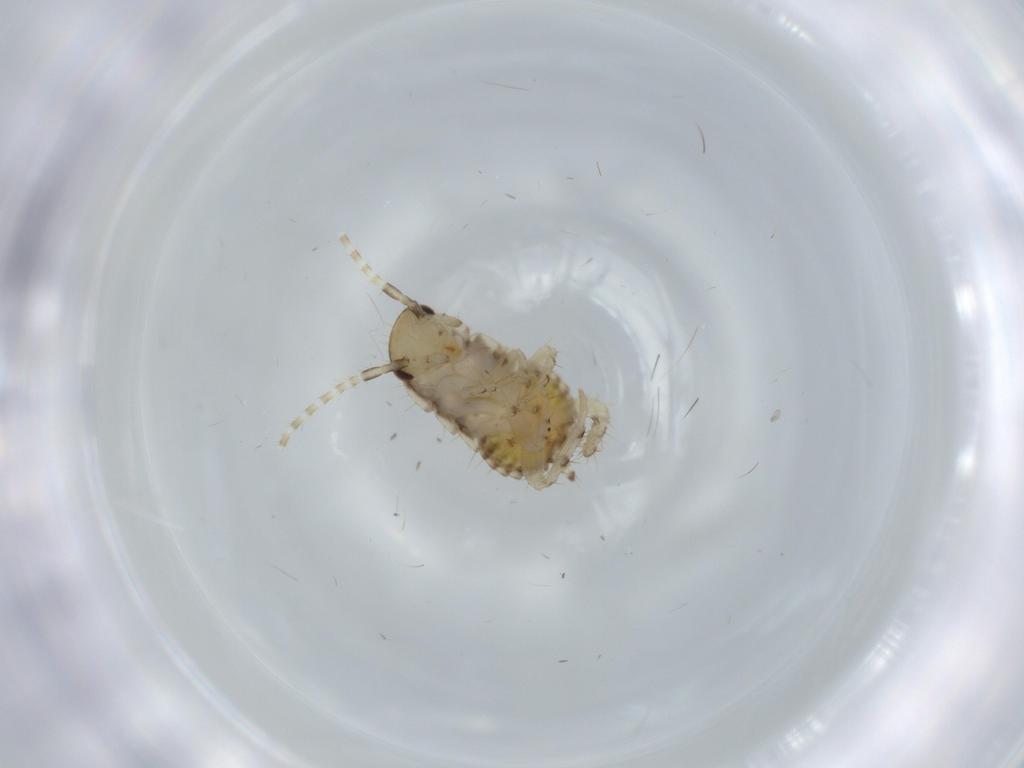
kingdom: Animalia
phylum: Arthropoda
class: Insecta
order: Blattodea
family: Ectobiidae
